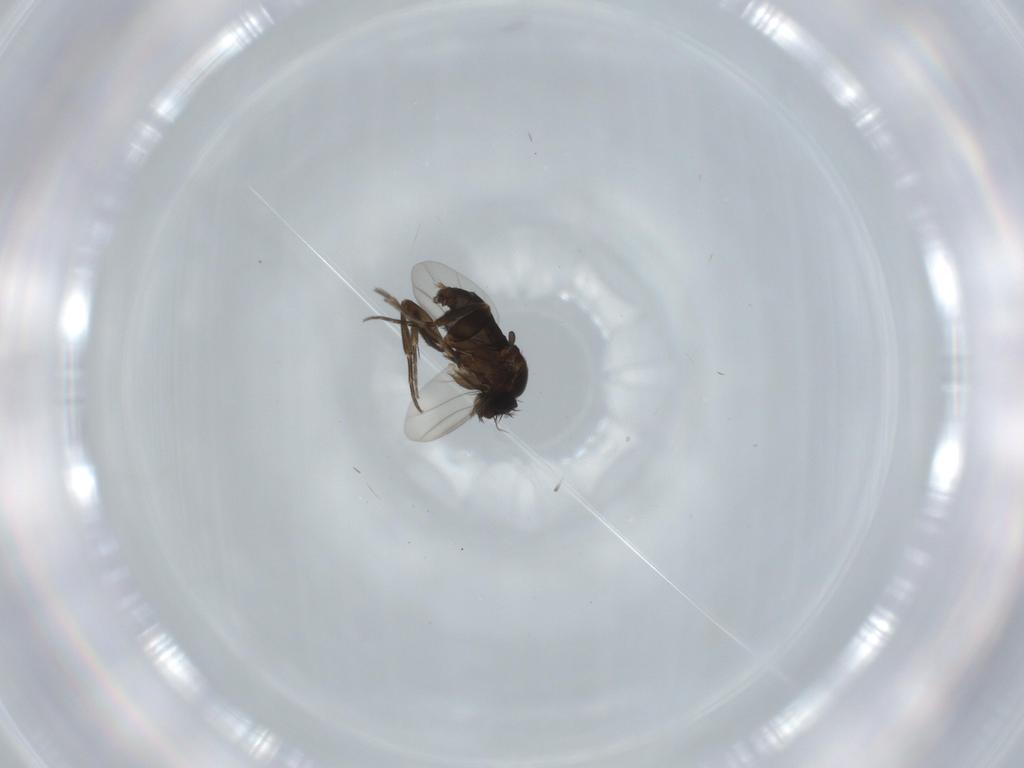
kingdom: Animalia
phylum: Arthropoda
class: Insecta
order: Diptera
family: Phoridae
